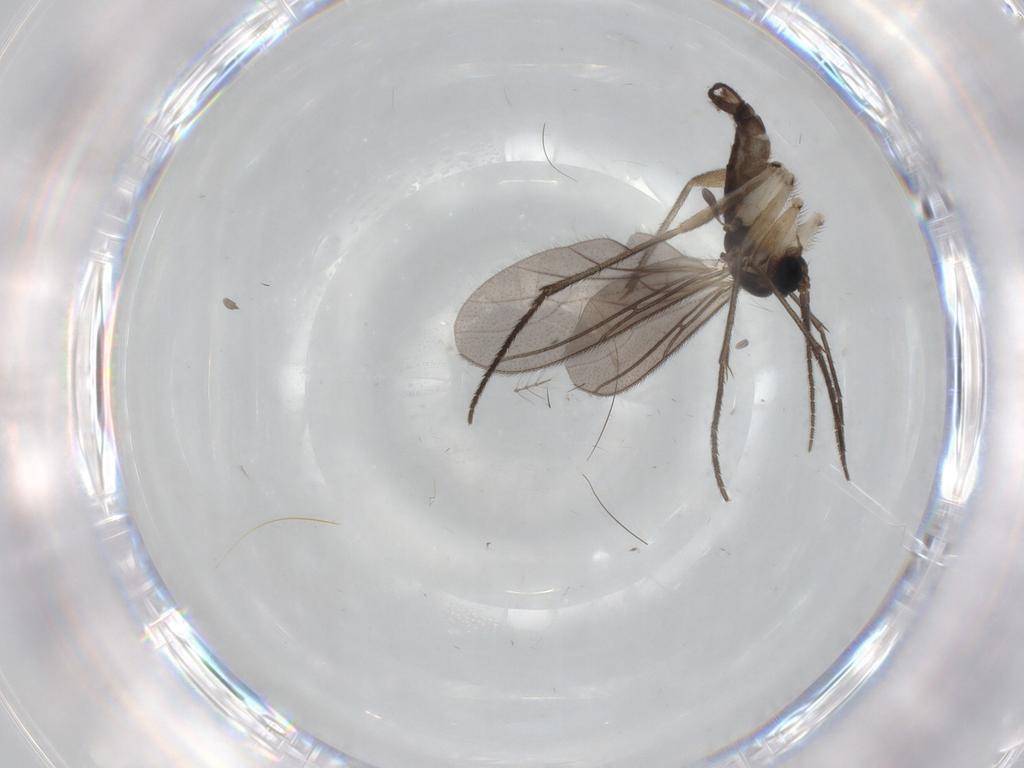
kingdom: Animalia
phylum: Arthropoda
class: Insecta
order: Diptera
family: Sciaridae
